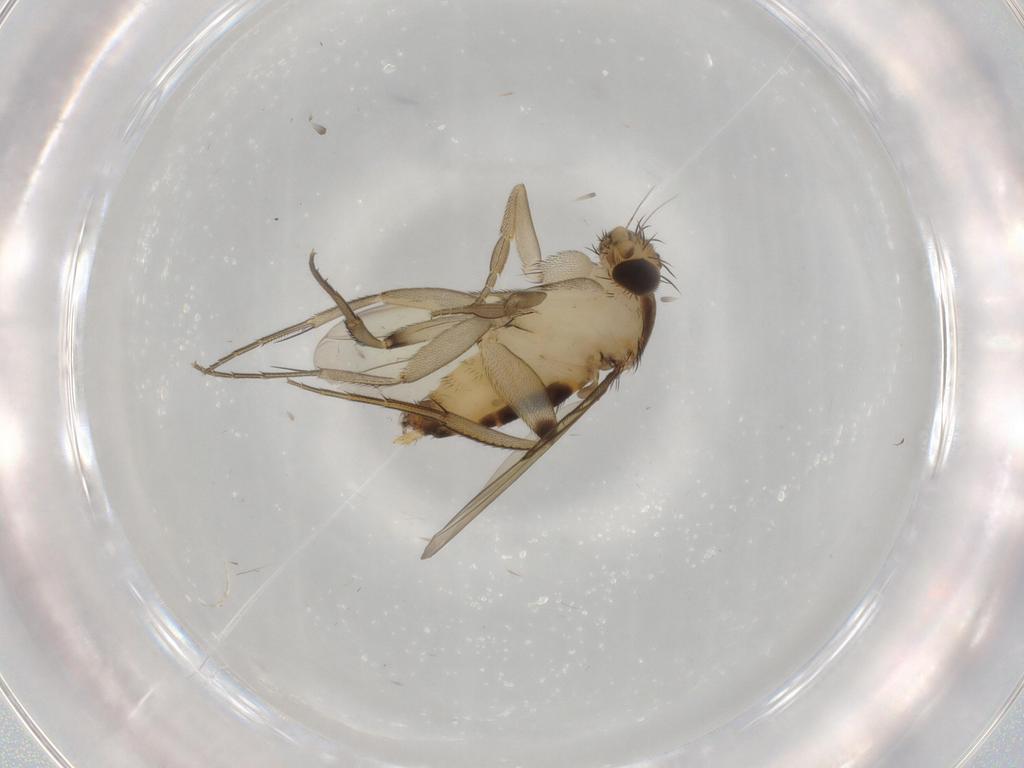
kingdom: Animalia
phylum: Arthropoda
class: Insecta
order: Diptera
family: Phoridae
